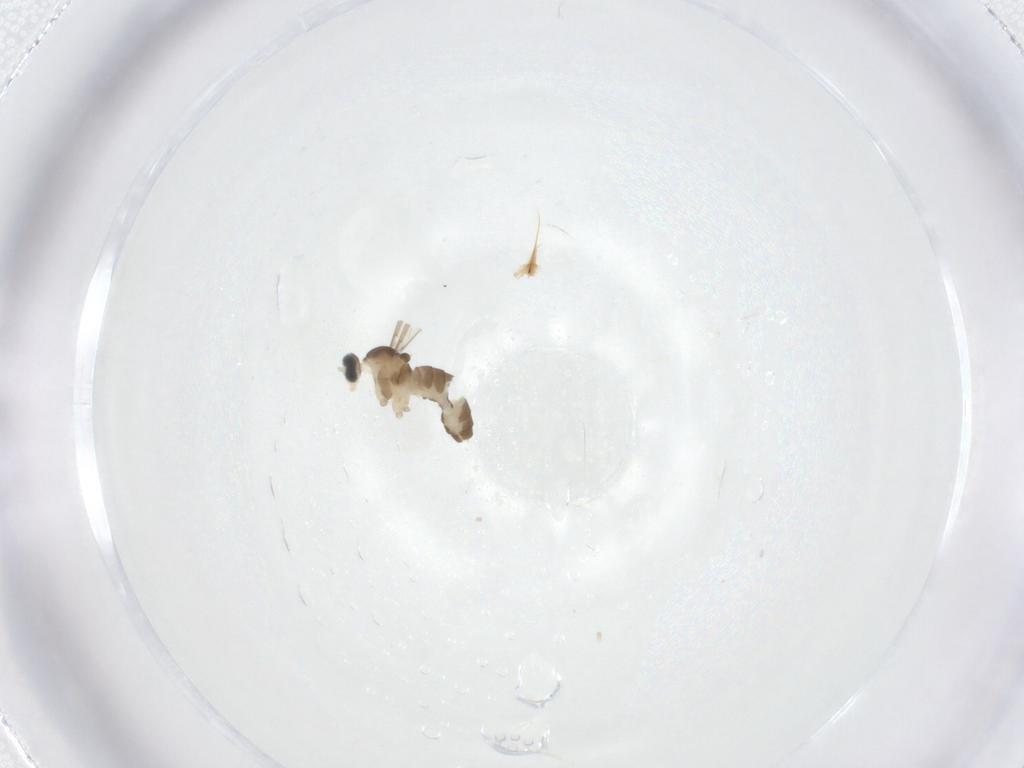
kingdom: Animalia
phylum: Arthropoda
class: Insecta
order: Diptera
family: Cecidomyiidae
